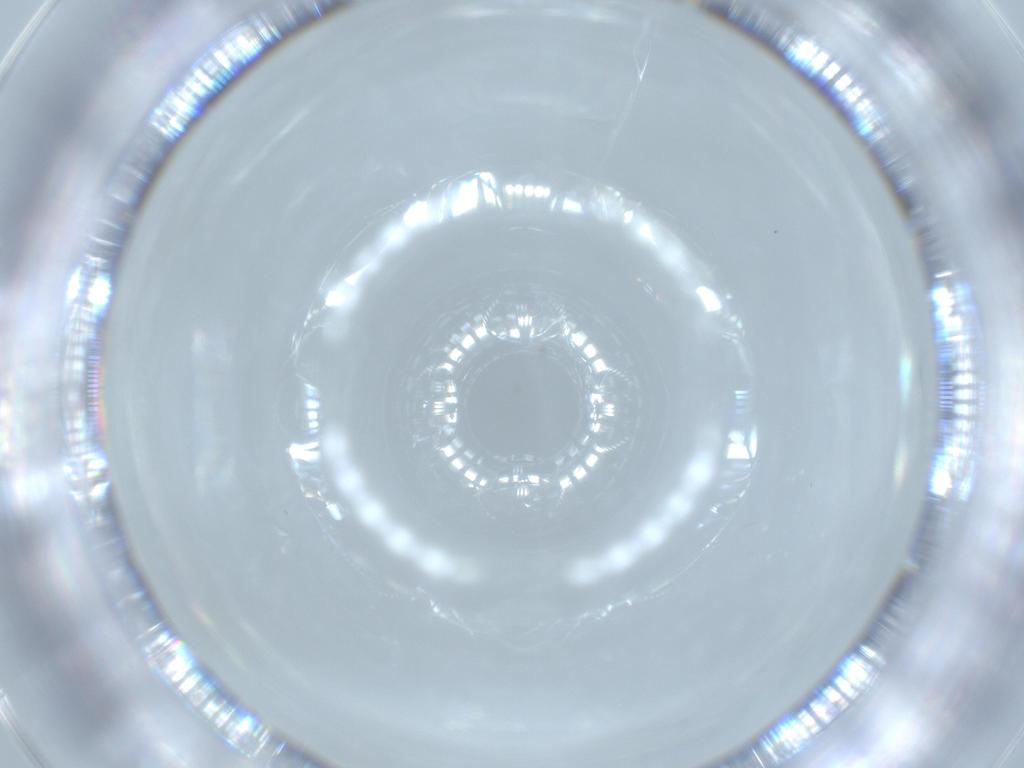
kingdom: Animalia
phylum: Arthropoda
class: Insecta
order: Diptera
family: Cecidomyiidae
